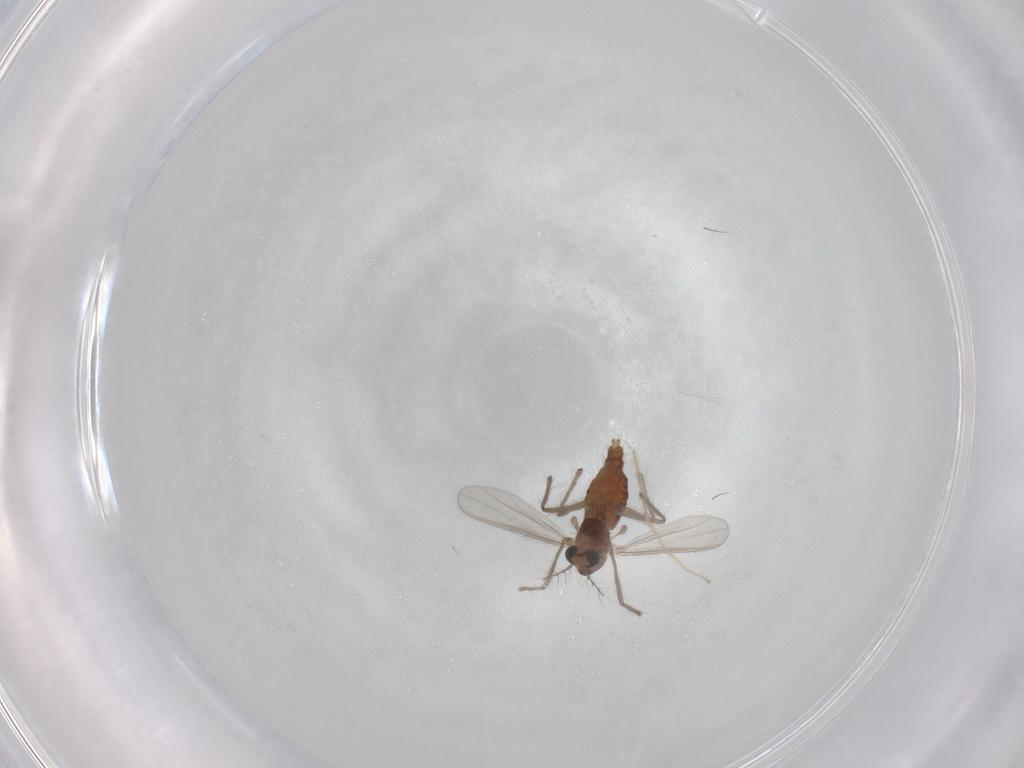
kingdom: Animalia
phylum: Arthropoda
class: Insecta
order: Diptera
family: Chironomidae
